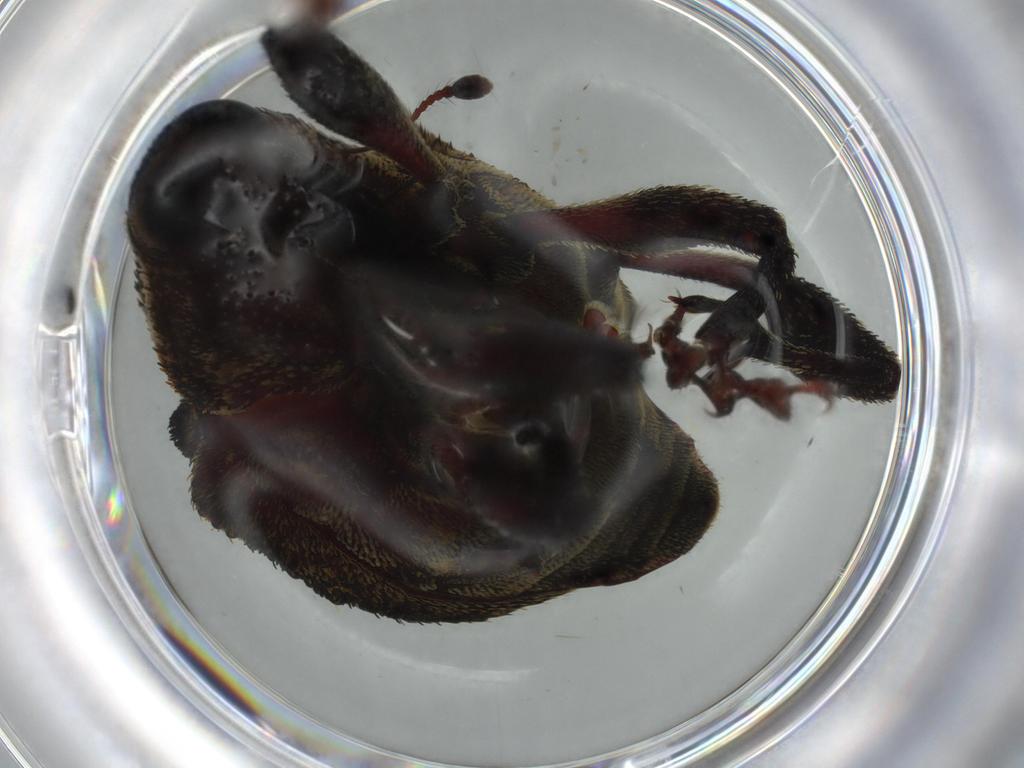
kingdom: Animalia
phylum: Arthropoda
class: Insecta
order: Coleoptera
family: Curculionidae
